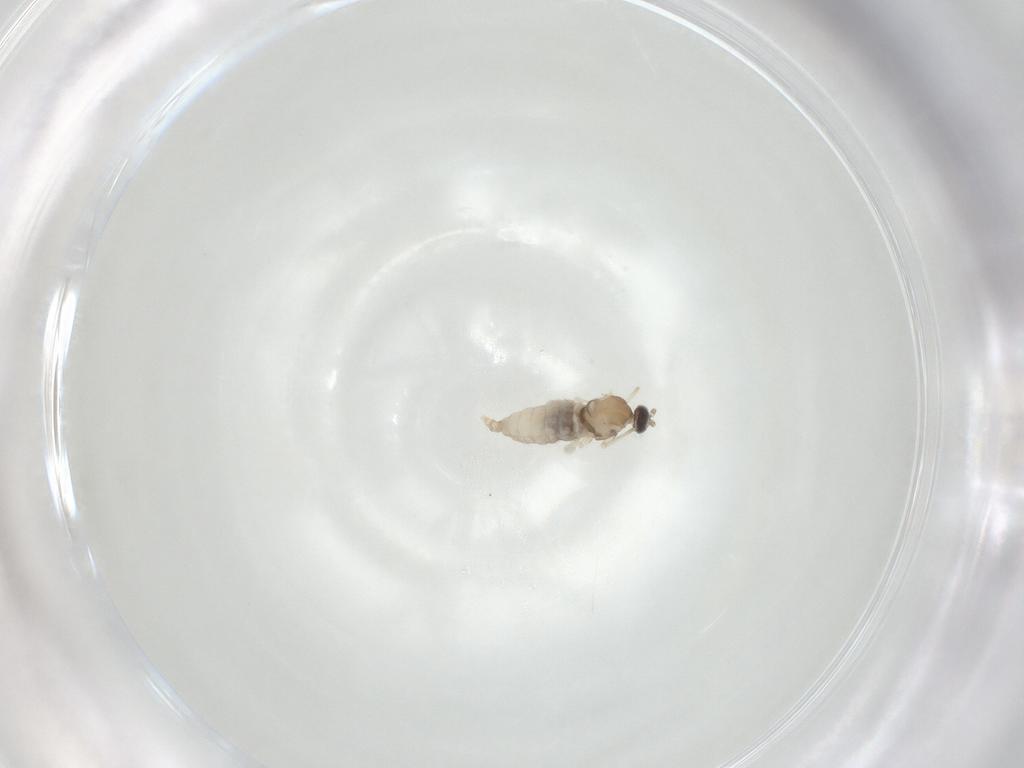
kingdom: Animalia
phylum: Arthropoda
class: Insecta
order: Diptera
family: Cecidomyiidae
